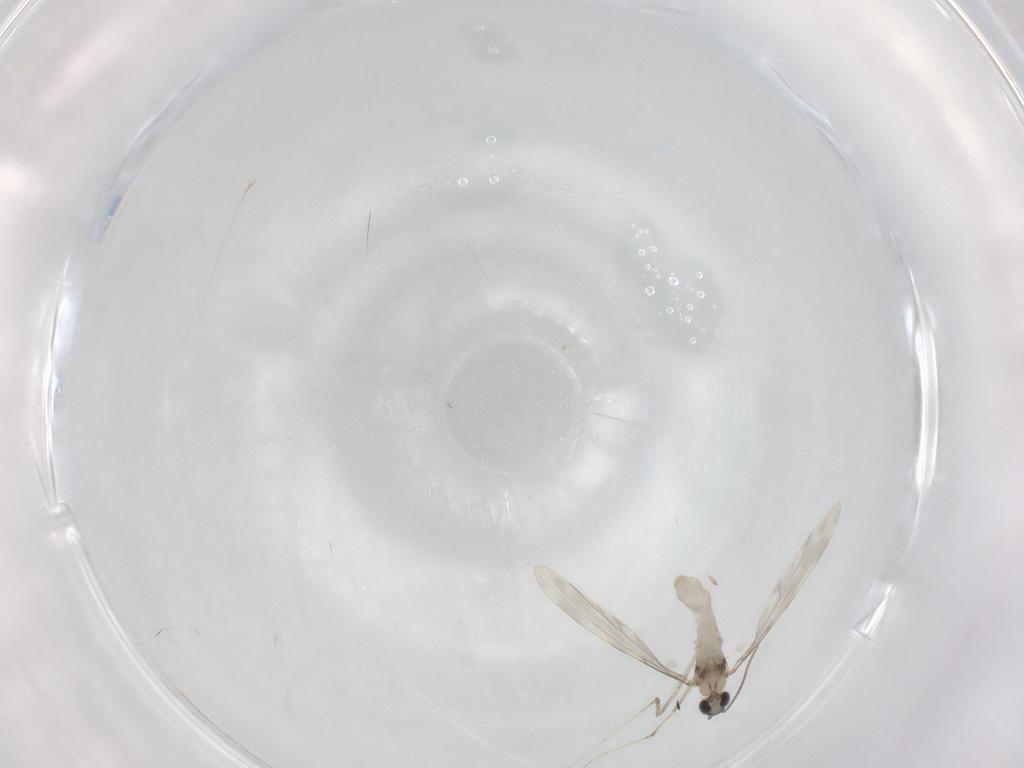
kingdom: Animalia
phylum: Arthropoda
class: Insecta
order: Diptera
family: Cecidomyiidae
